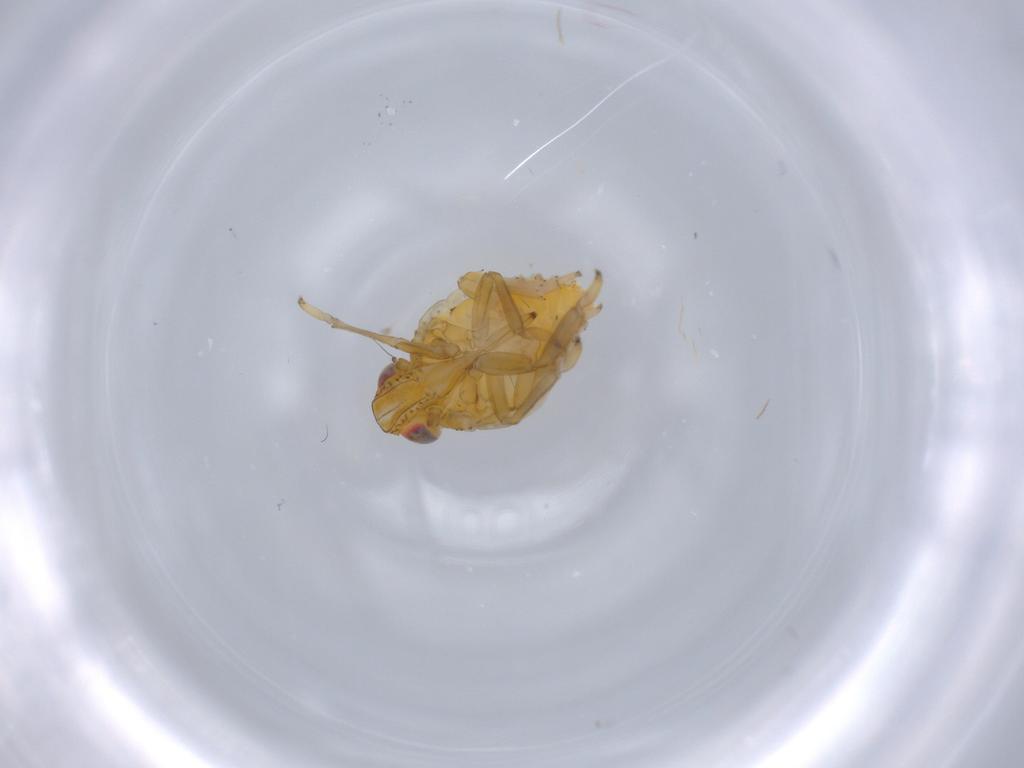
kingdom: Animalia
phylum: Arthropoda
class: Insecta
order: Hemiptera
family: Issidae
